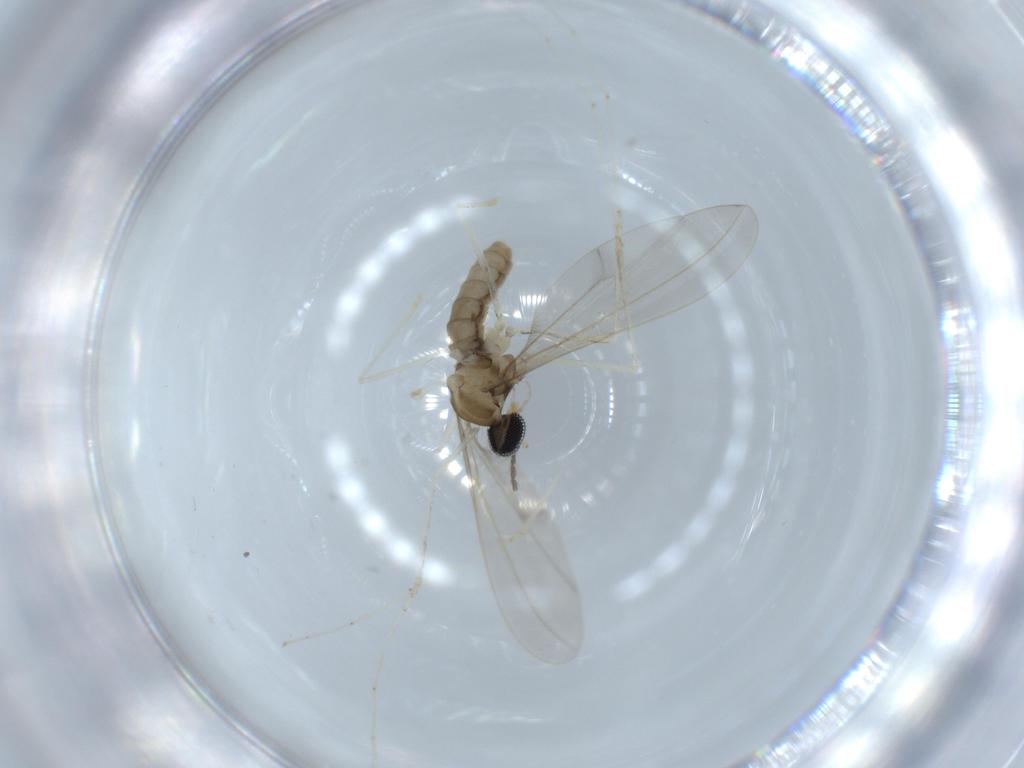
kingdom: Animalia
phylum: Arthropoda
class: Insecta
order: Diptera
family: Cecidomyiidae
